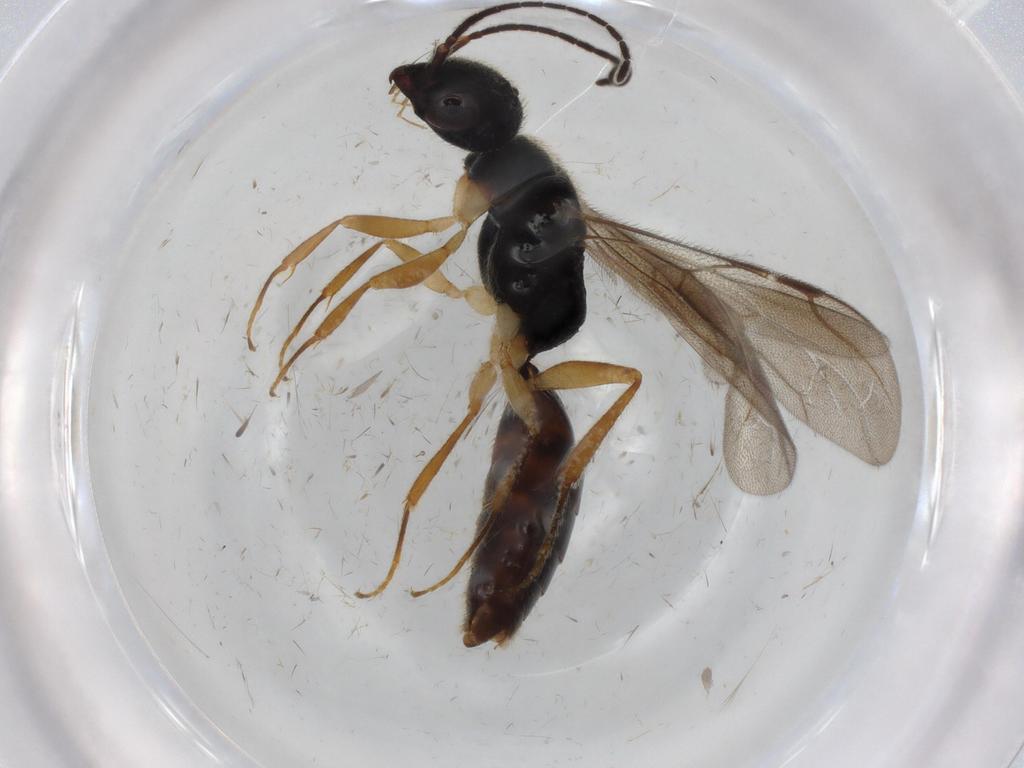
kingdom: Animalia
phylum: Arthropoda
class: Insecta
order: Hymenoptera
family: Bethylidae
